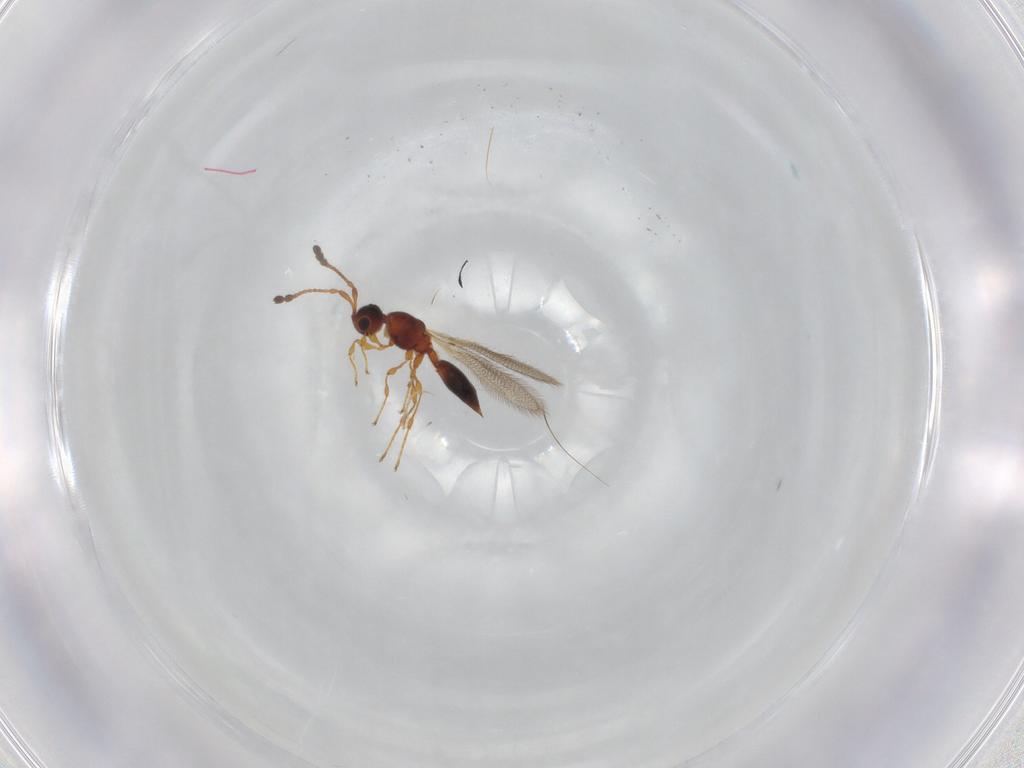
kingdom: Animalia
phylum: Arthropoda
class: Insecta
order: Hymenoptera
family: Diapriidae
